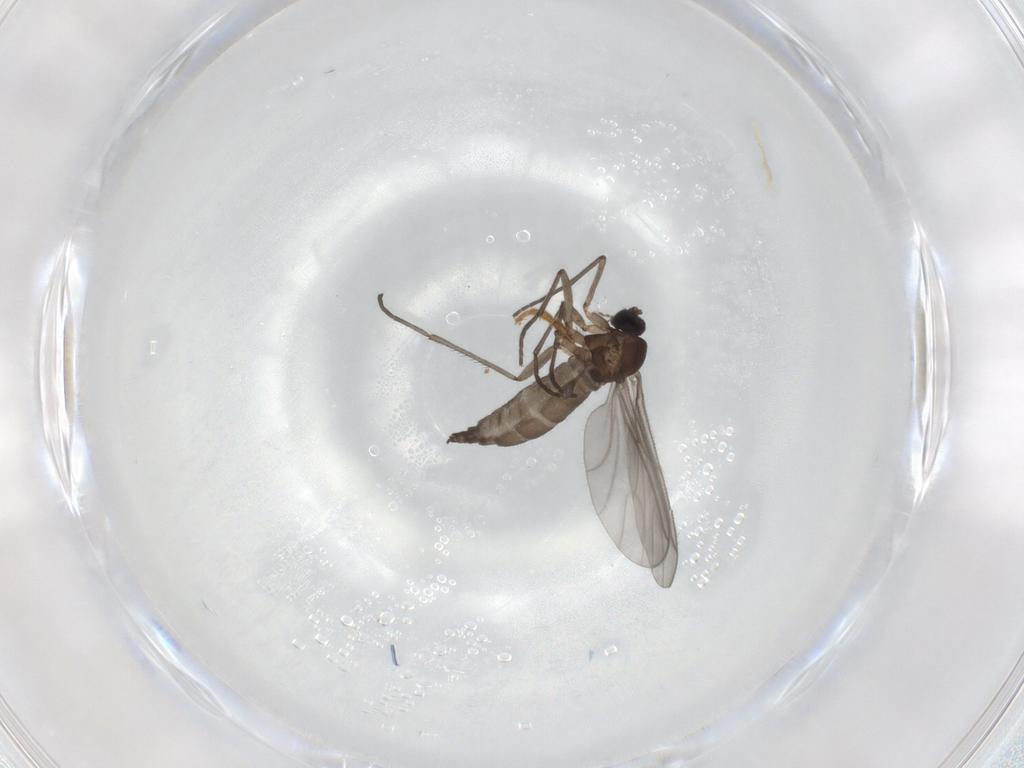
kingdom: Animalia
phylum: Arthropoda
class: Insecta
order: Diptera
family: Sciaridae
